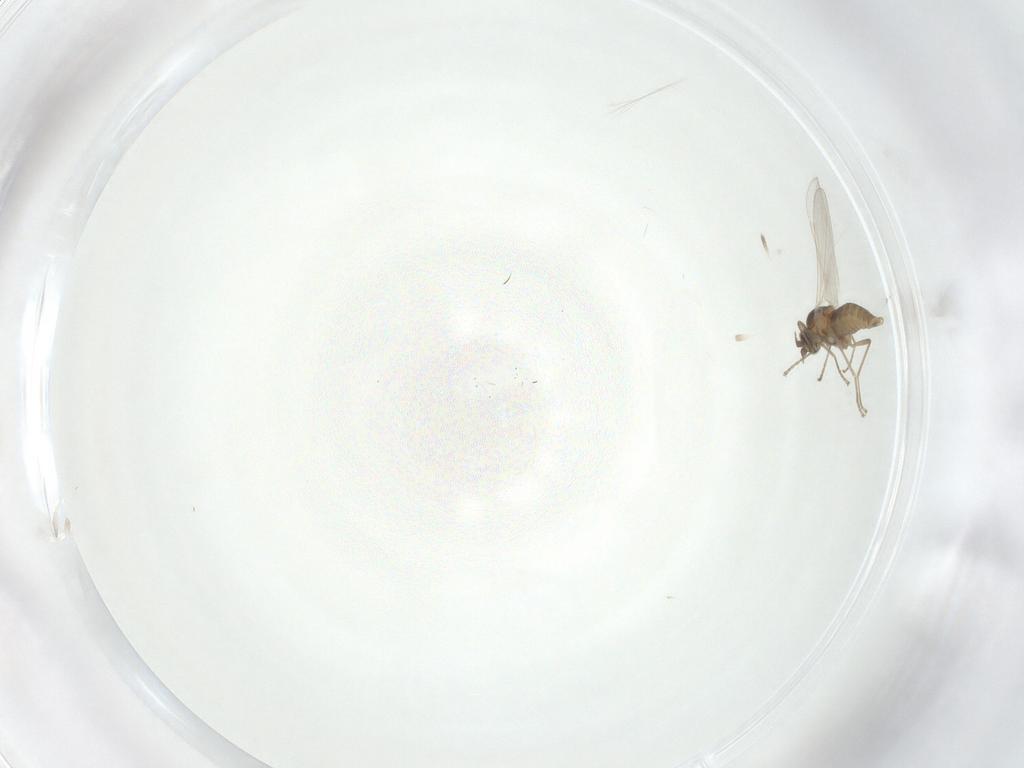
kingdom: Animalia
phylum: Arthropoda
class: Insecta
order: Diptera
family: Cecidomyiidae
